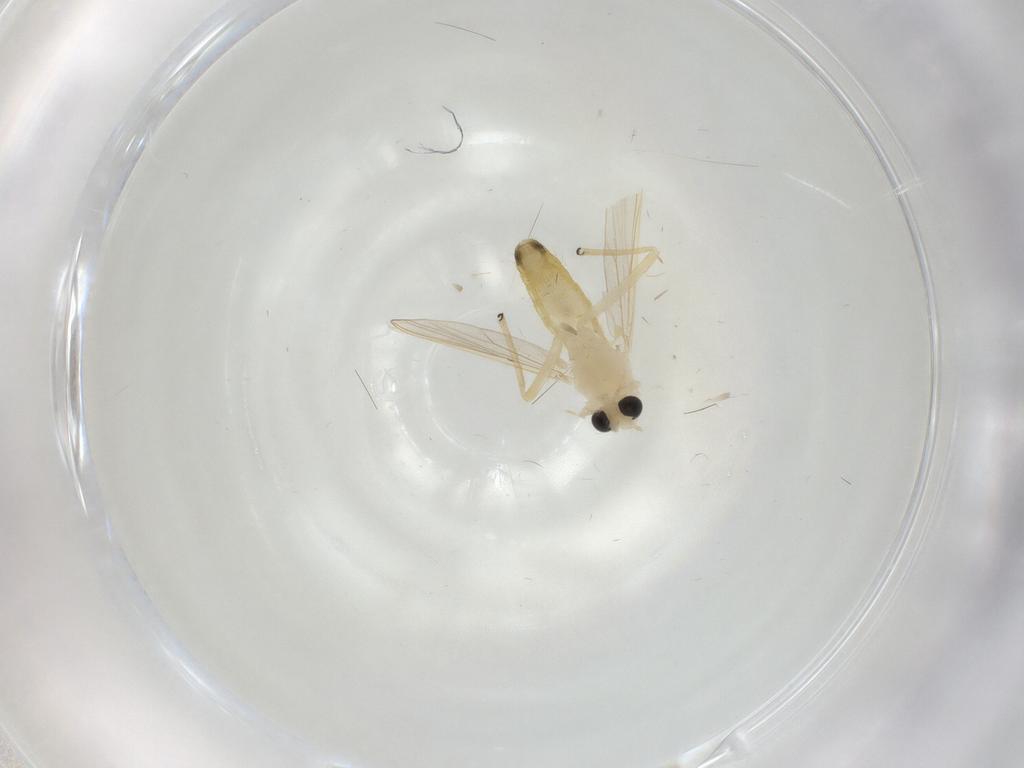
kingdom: Animalia
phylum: Arthropoda
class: Insecta
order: Diptera
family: Chironomidae
